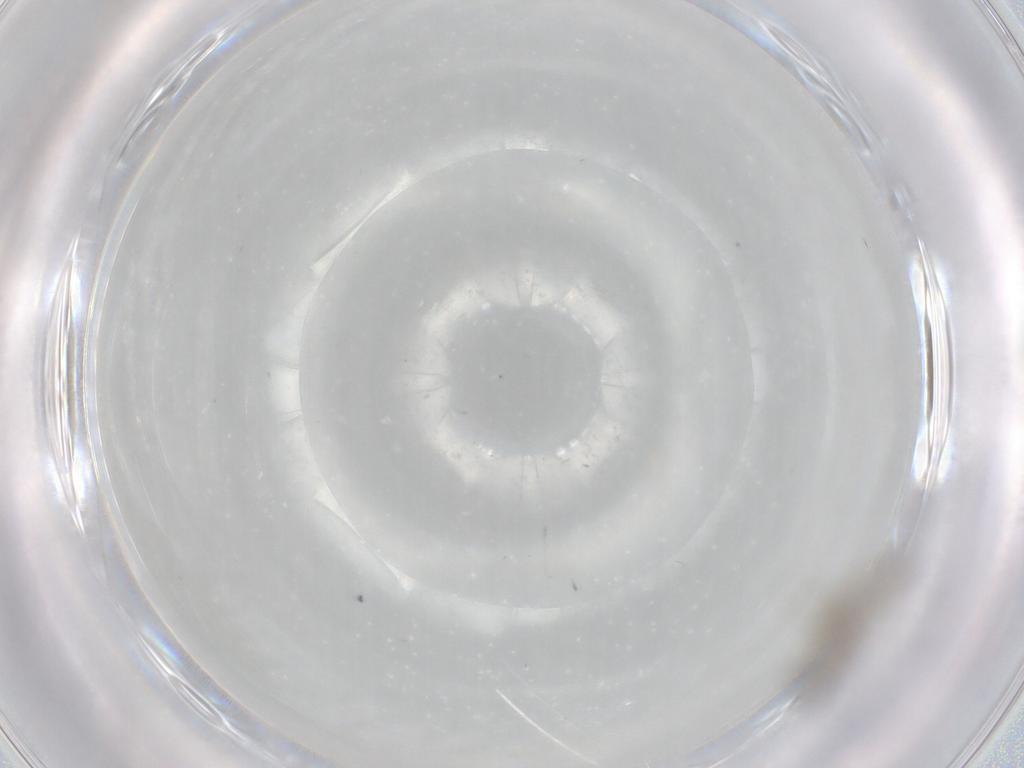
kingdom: Animalia
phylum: Arthropoda
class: Insecta
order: Diptera
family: Cecidomyiidae
